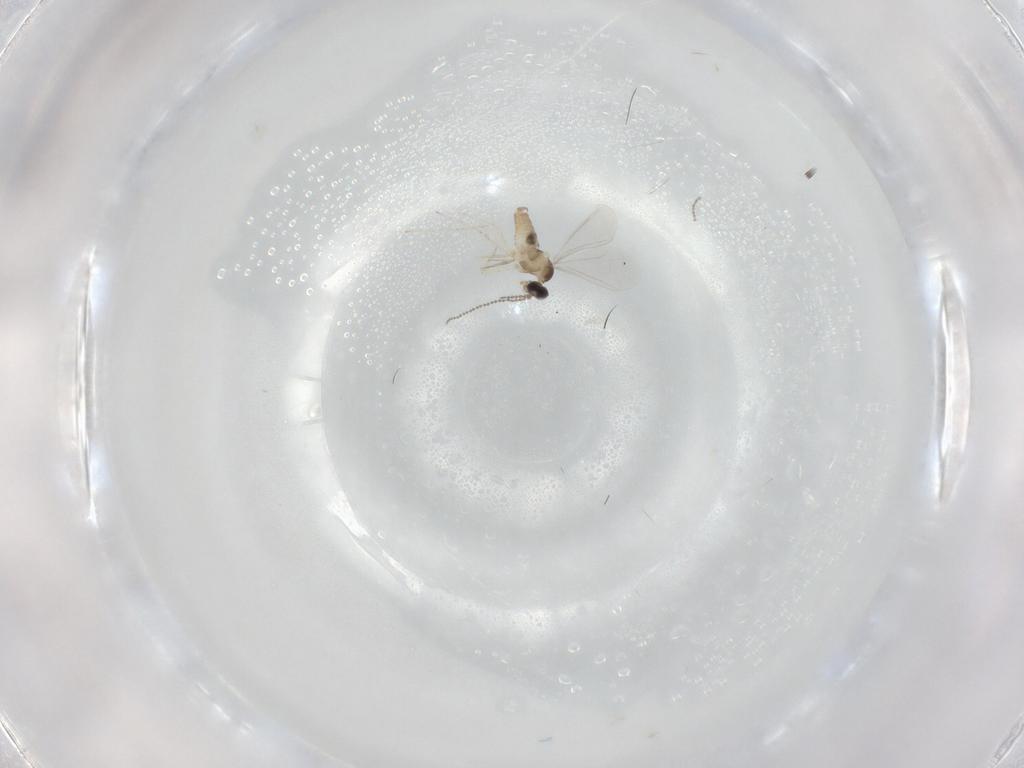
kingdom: Animalia
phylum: Arthropoda
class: Insecta
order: Diptera
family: Cecidomyiidae
